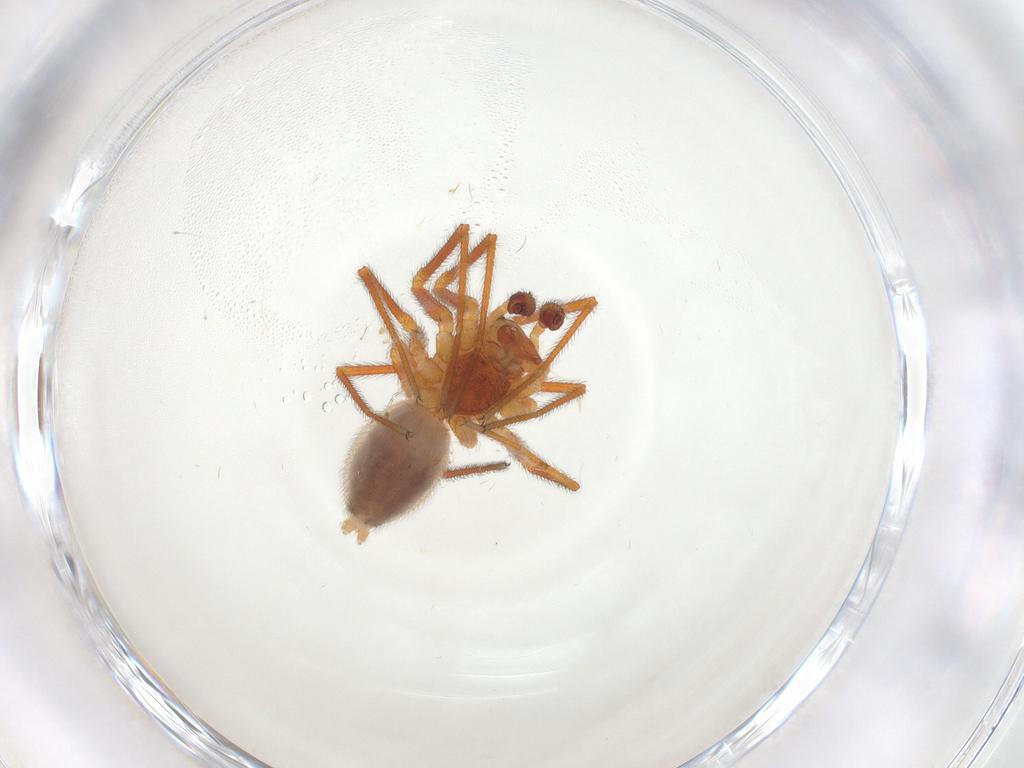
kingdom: Animalia
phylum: Arthropoda
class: Arachnida
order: Araneae
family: Linyphiidae
